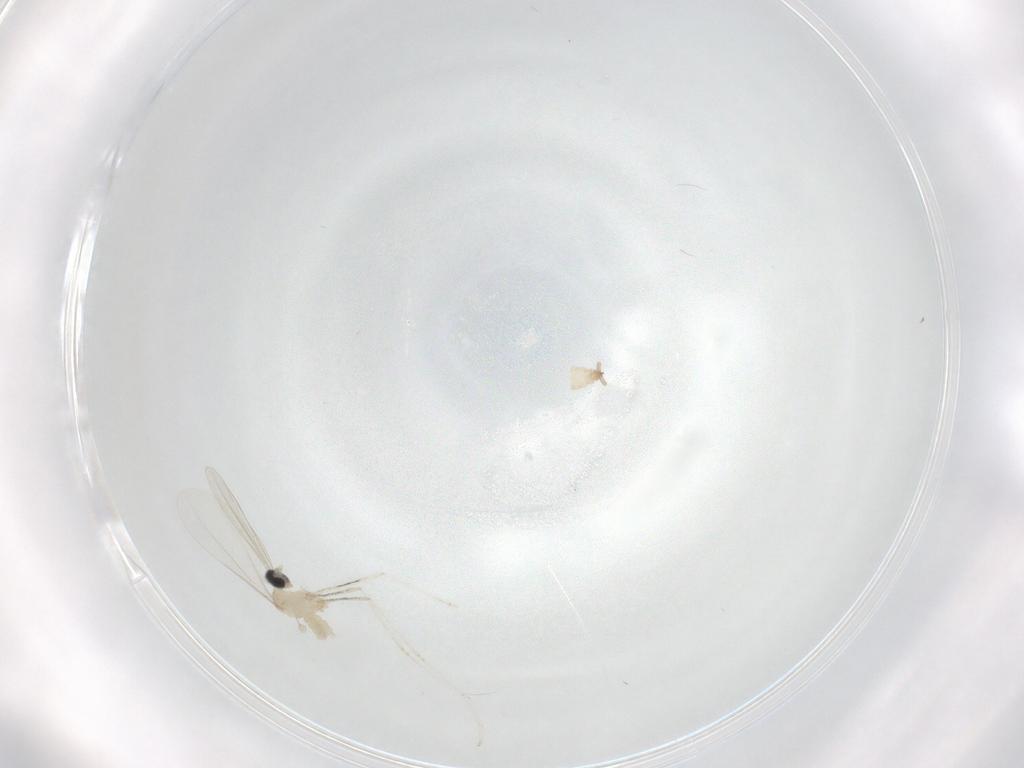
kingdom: Animalia
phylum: Arthropoda
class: Insecta
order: Diptera
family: Cecidomyiidae
